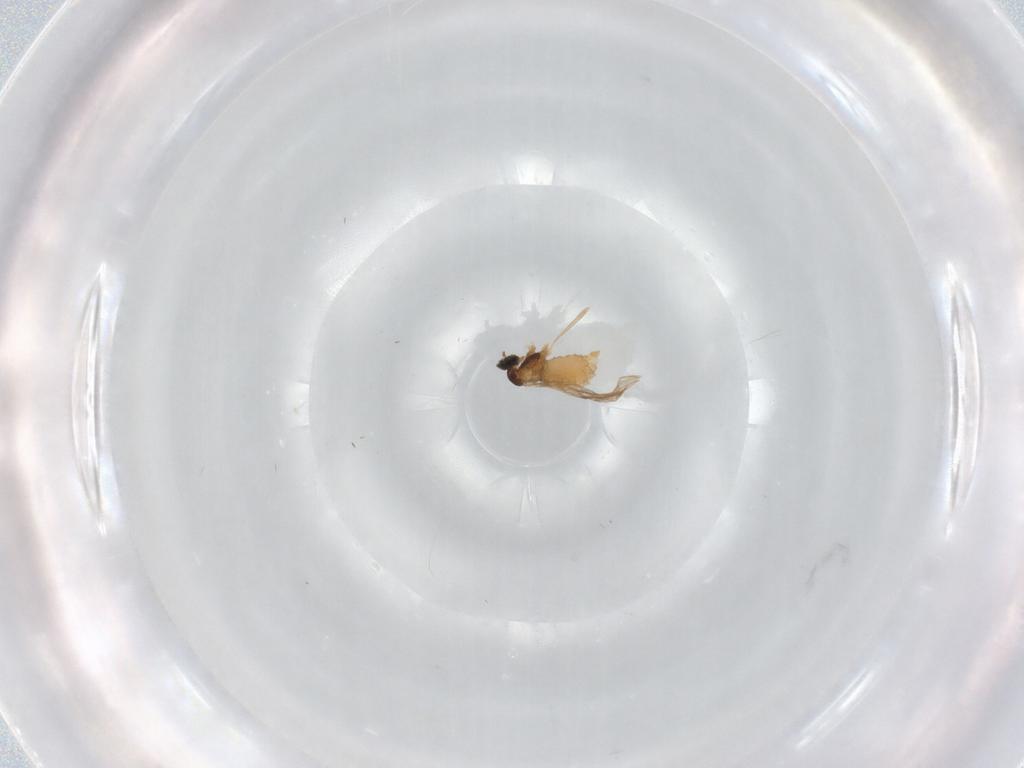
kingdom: Animalia
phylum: Arthropoda
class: Insecta
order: Diptera
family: Cecidomyiidae
